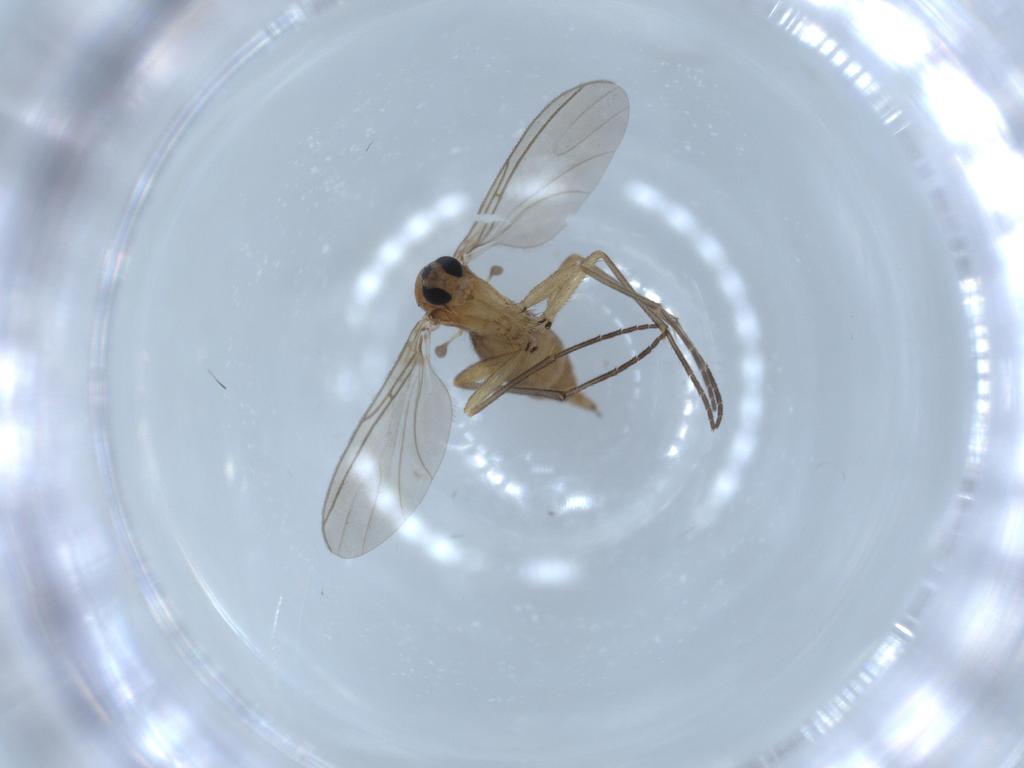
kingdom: Animalia
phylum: Arthropoda
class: Insecta
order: Diptera
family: Sciaridae
